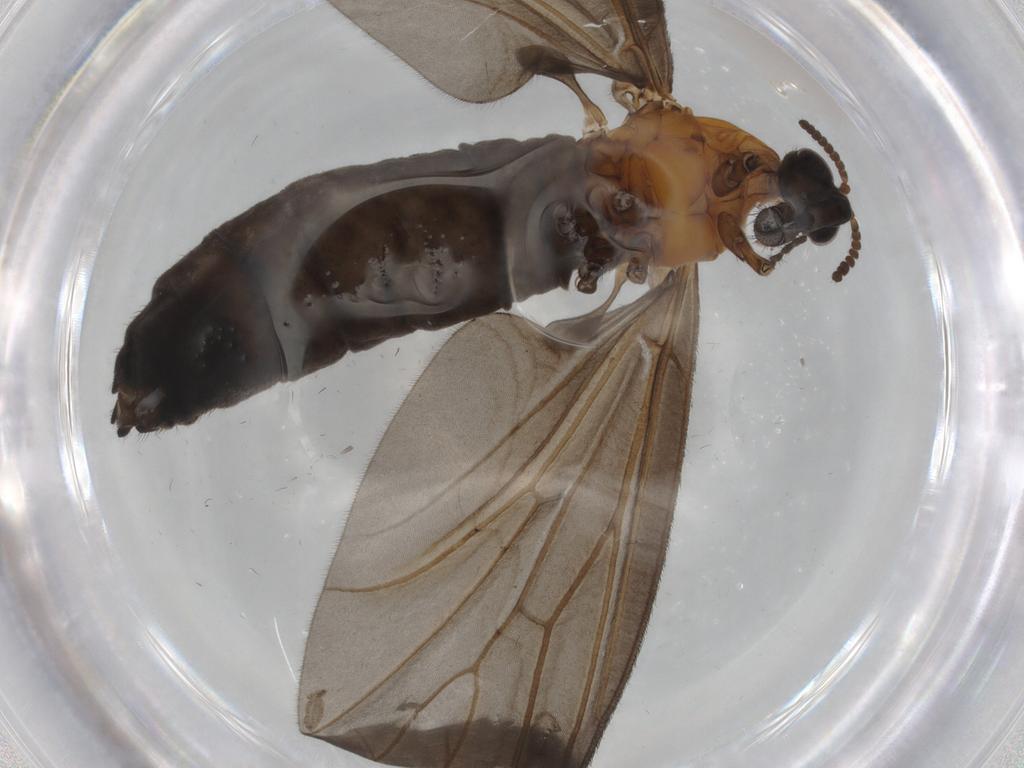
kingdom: Animalia
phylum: Arthropoda
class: Insecta
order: Diptera
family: Bibionidae
